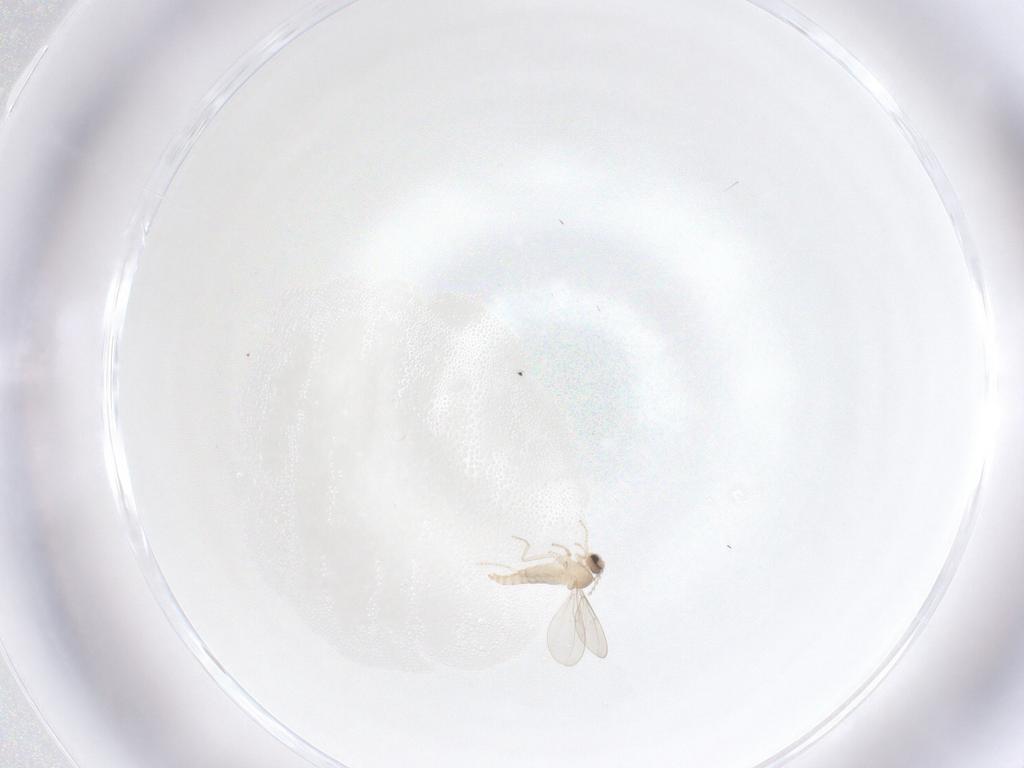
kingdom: Animalia
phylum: Arthropoda
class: Insecta
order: Diptera
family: Cecidomyiidae
